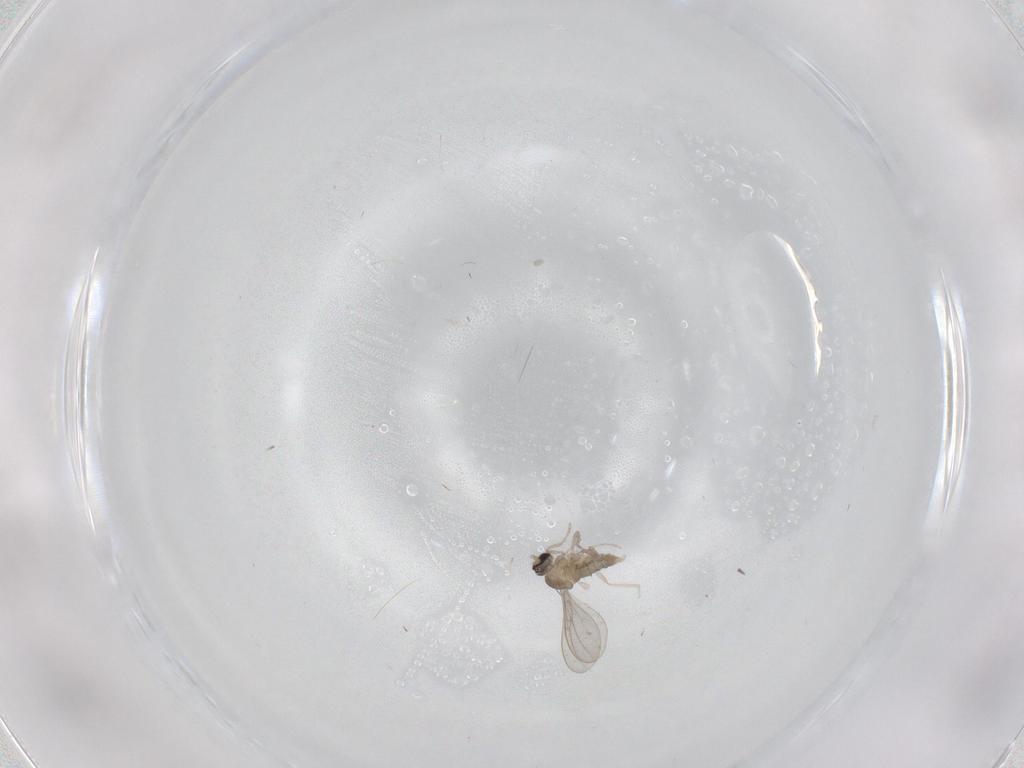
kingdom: Animalia
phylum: Arthropoda
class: Insecta
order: Diptera
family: Cecidomyiidae
